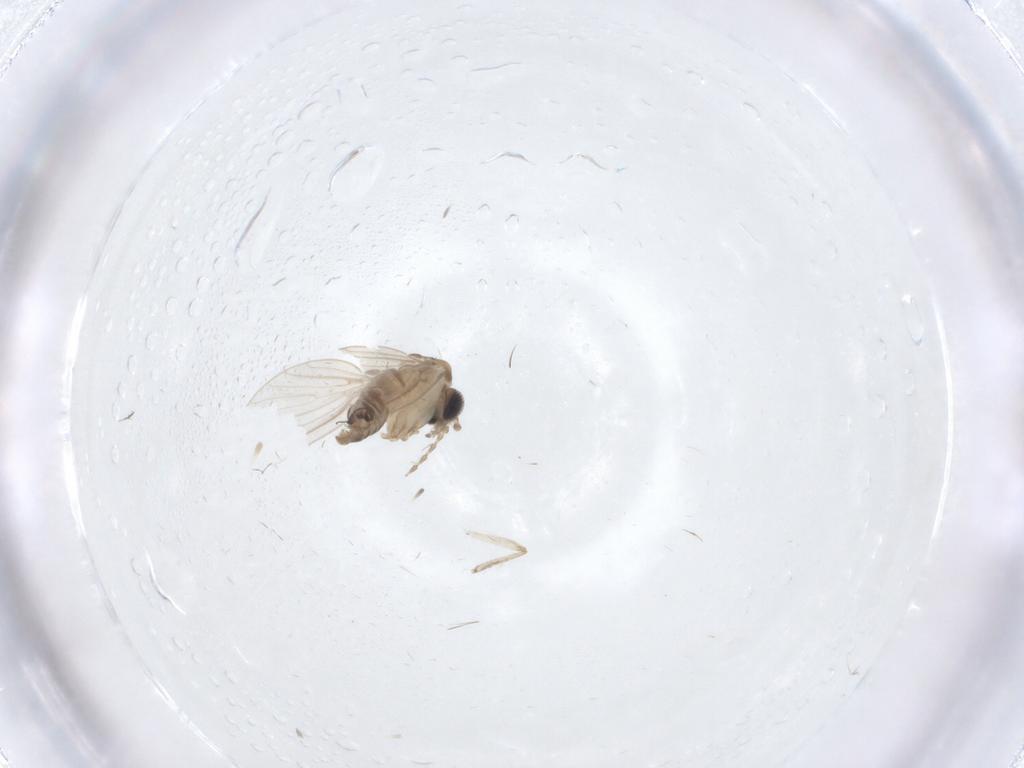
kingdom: Animalia
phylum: Arthropoda
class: Insecta
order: Diptera
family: Psychodidae
